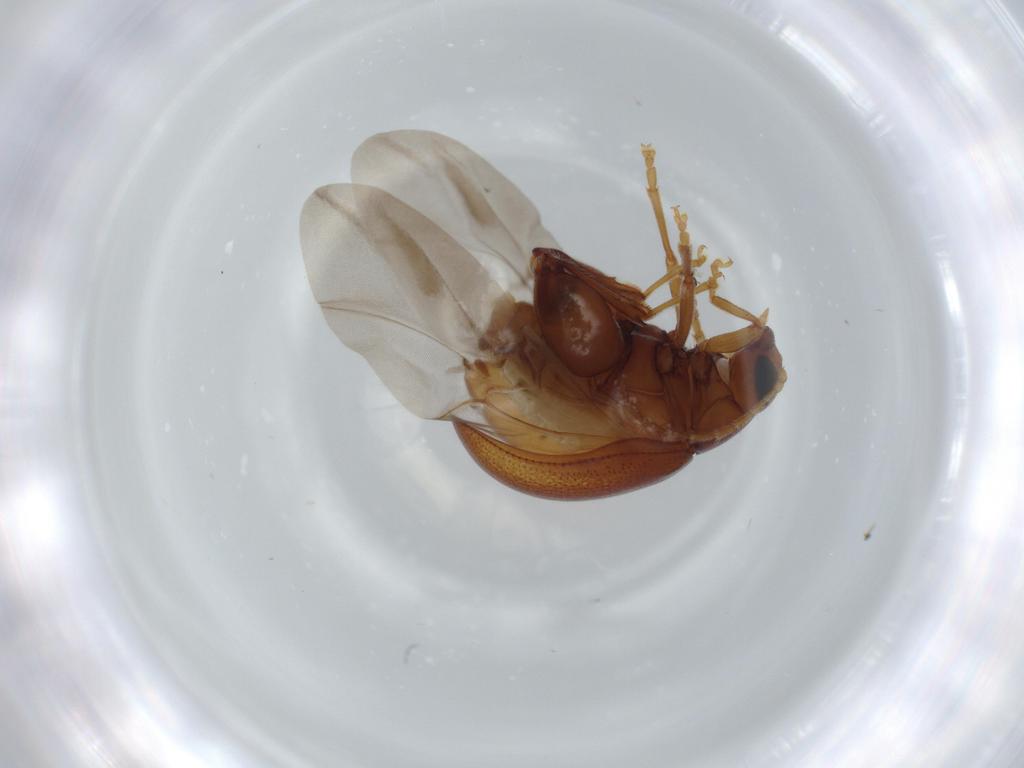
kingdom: Animalia
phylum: Arthropoda
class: Insecta
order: Coleoptera
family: Chrysomelidae
